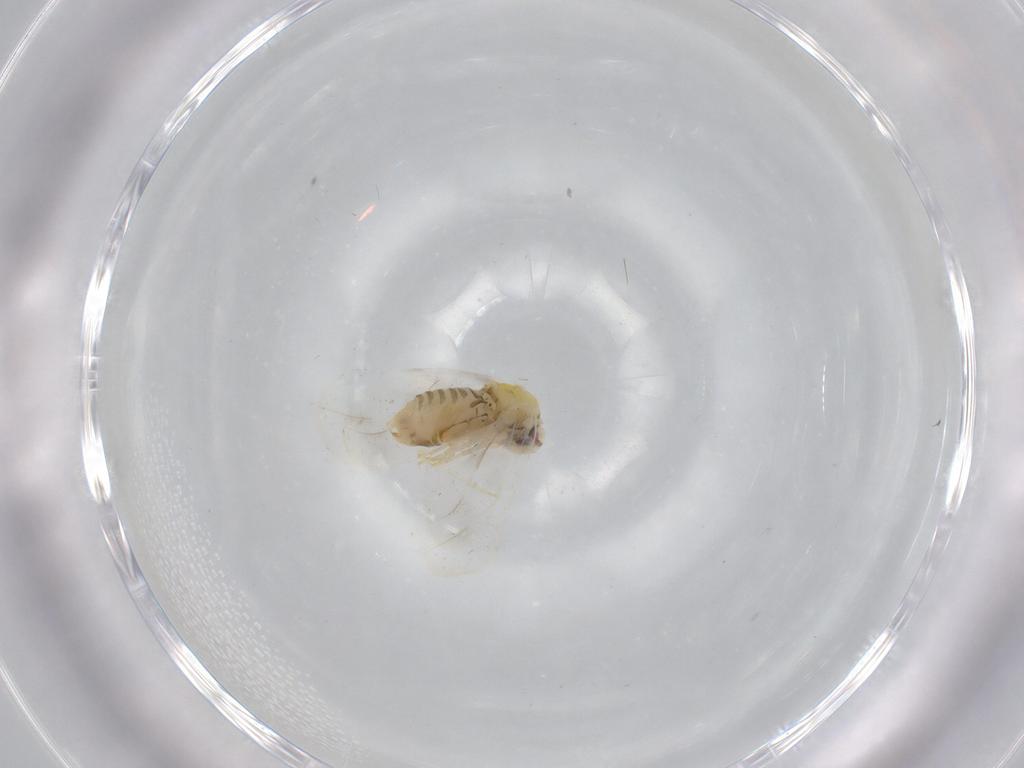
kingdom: Animalia
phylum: Arthropoda
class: Insecta
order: Hemiptera
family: Aleyrodidae
